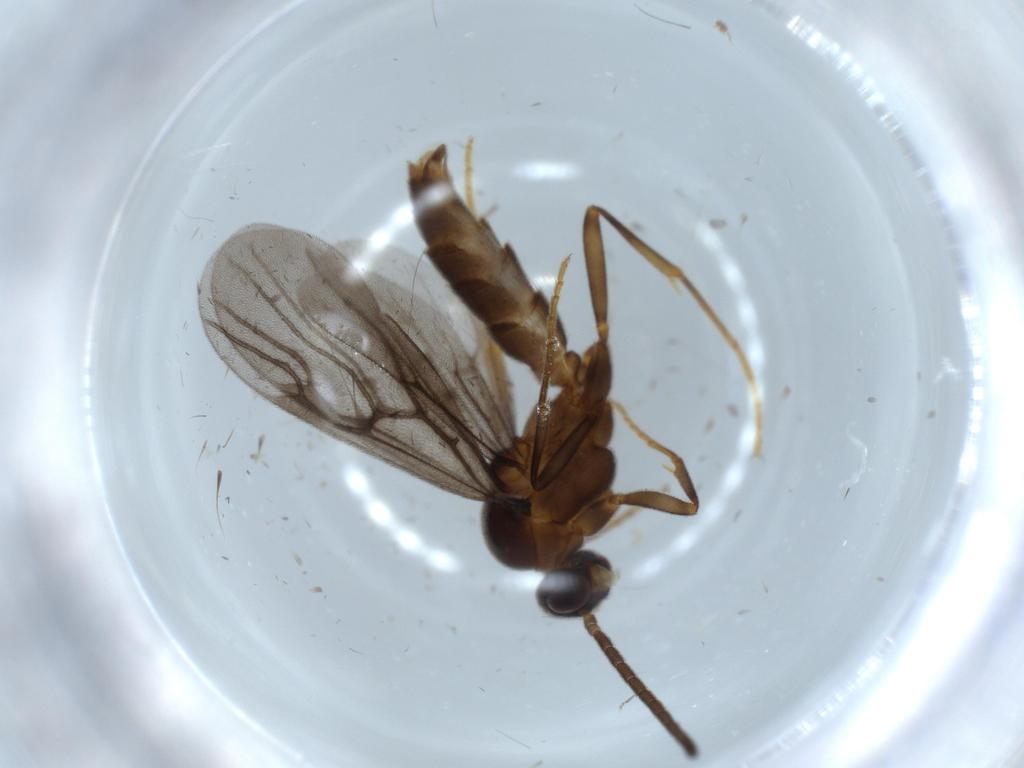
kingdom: Animalia
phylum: Arthropoda
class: Insecta
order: Hymenoptera
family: Formicidae
